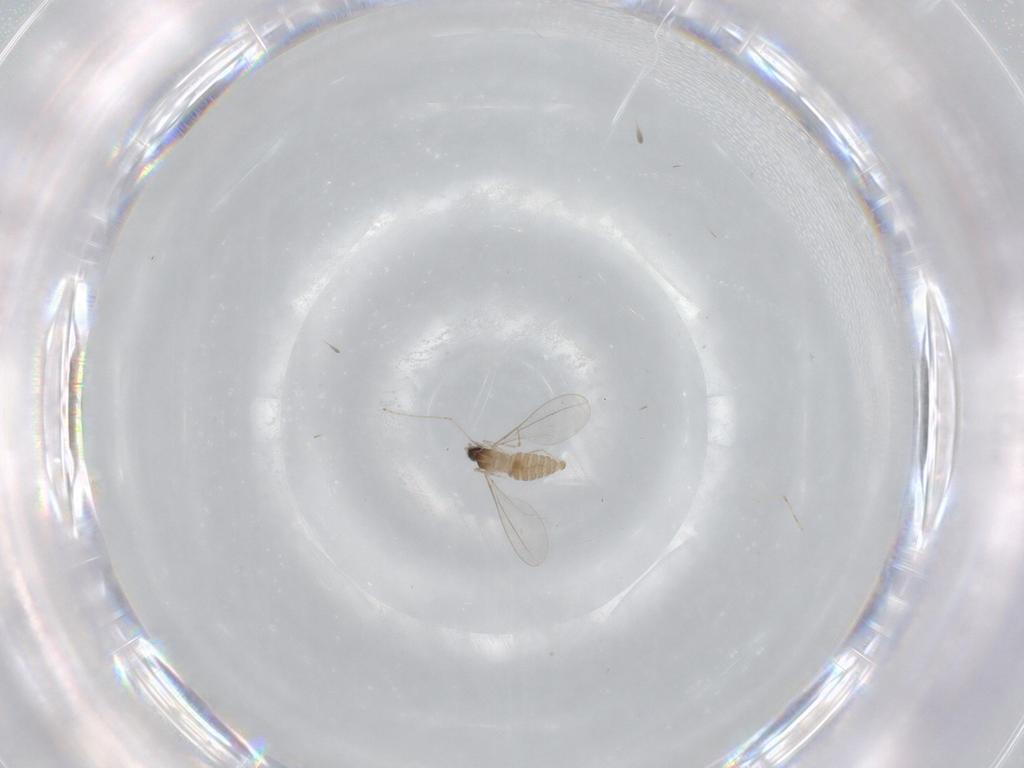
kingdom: Animalia
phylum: Arthropoda
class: Insecta
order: Diptera
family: Cecidomyiidae
